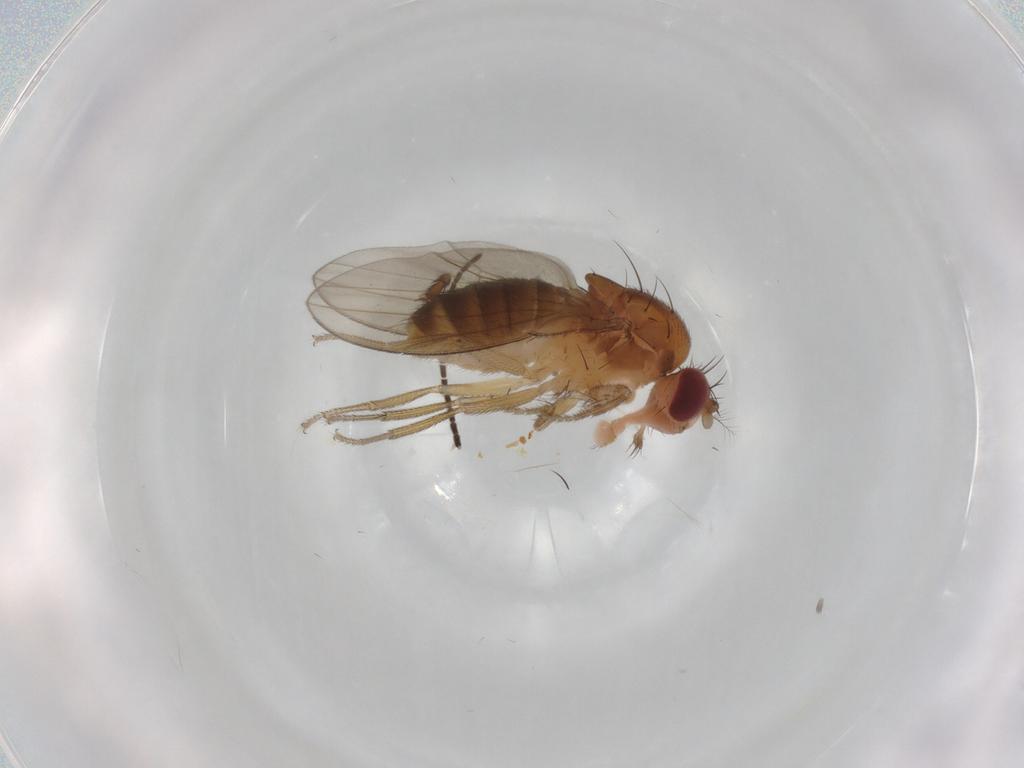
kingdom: Animalia
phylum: Arthropoda
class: Insecta
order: Diptera
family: Drosophilidae
